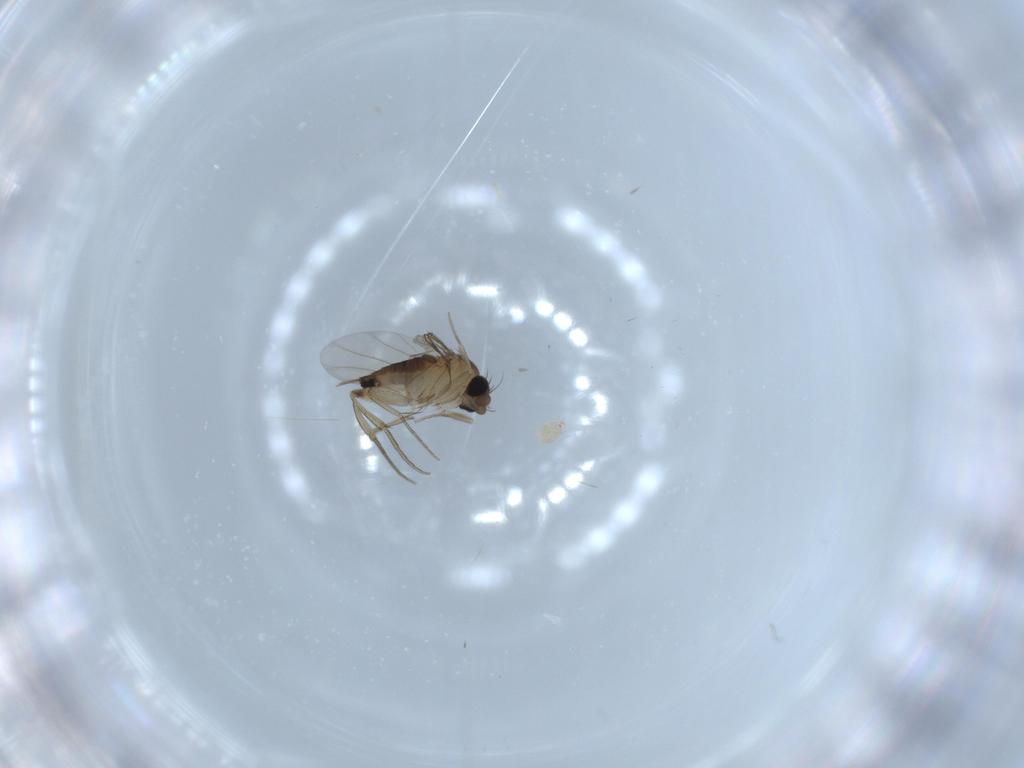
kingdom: Animalia
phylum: Arthropoda
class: Insecta
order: Diptera
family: Phoridae
